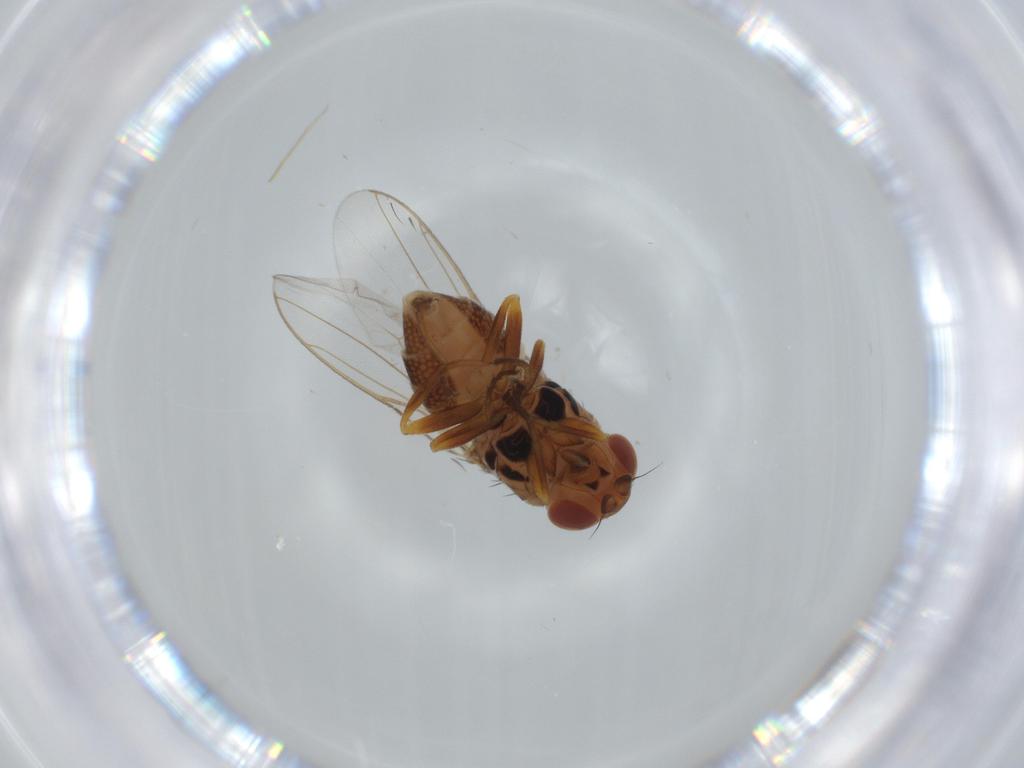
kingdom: Animalia
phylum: Arthropoda
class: Insecta
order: Diptera
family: Chloropidae
